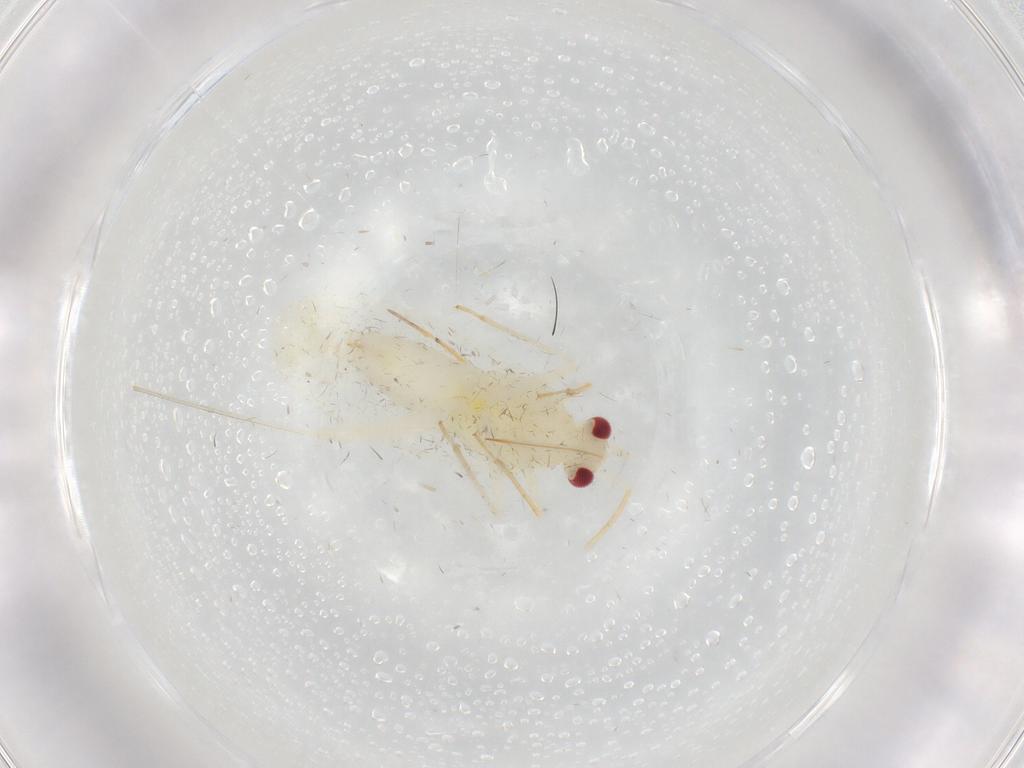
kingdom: Animalia
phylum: Arthropoda
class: Insecta
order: Hemiptera
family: Miridae
